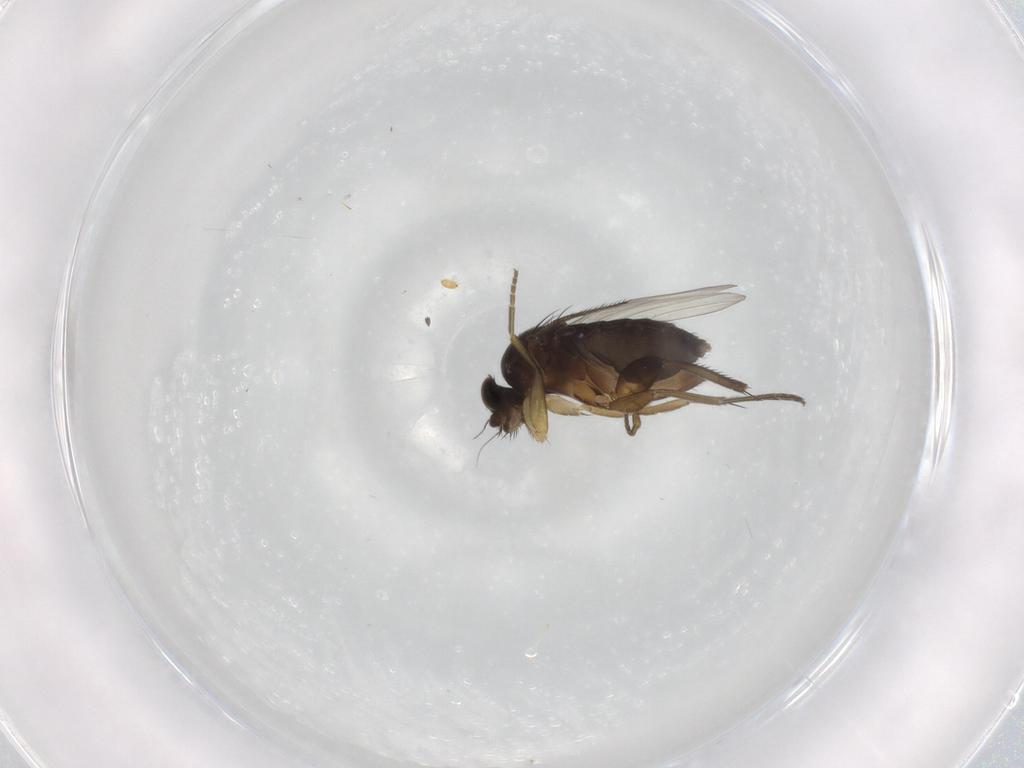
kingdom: Animalia
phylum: Arthropoda
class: Insecta
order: Diptera
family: Phoridae
